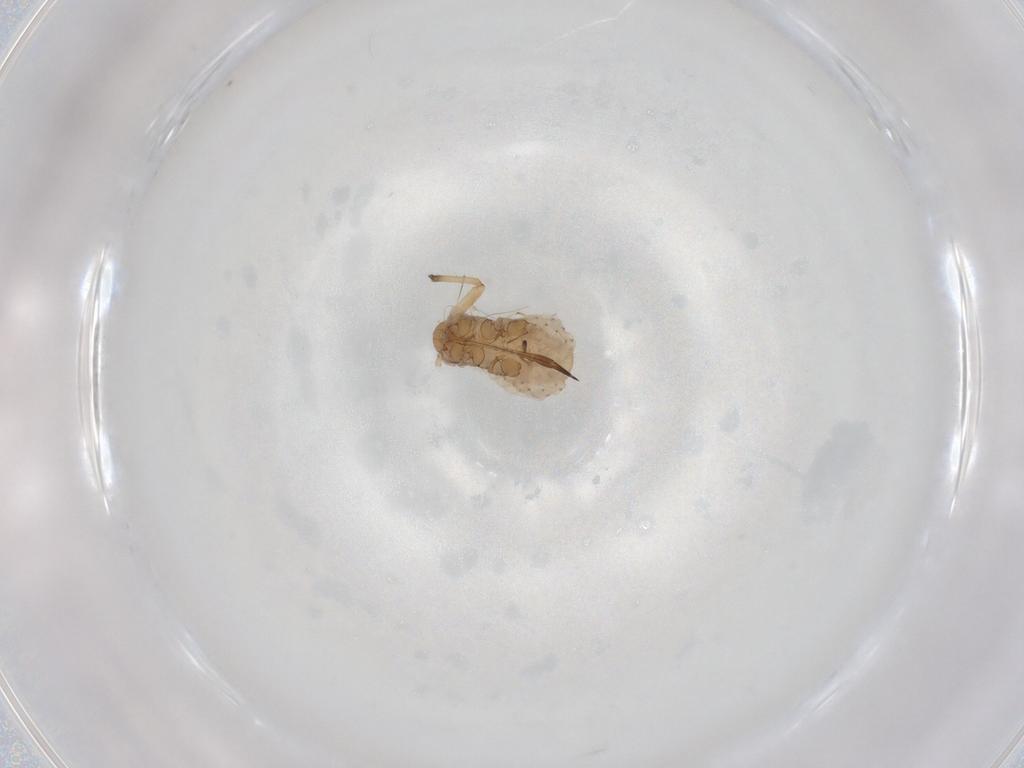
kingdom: Animalia
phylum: Arthropoda
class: Insecta
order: Hemiptera
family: Aphididae
